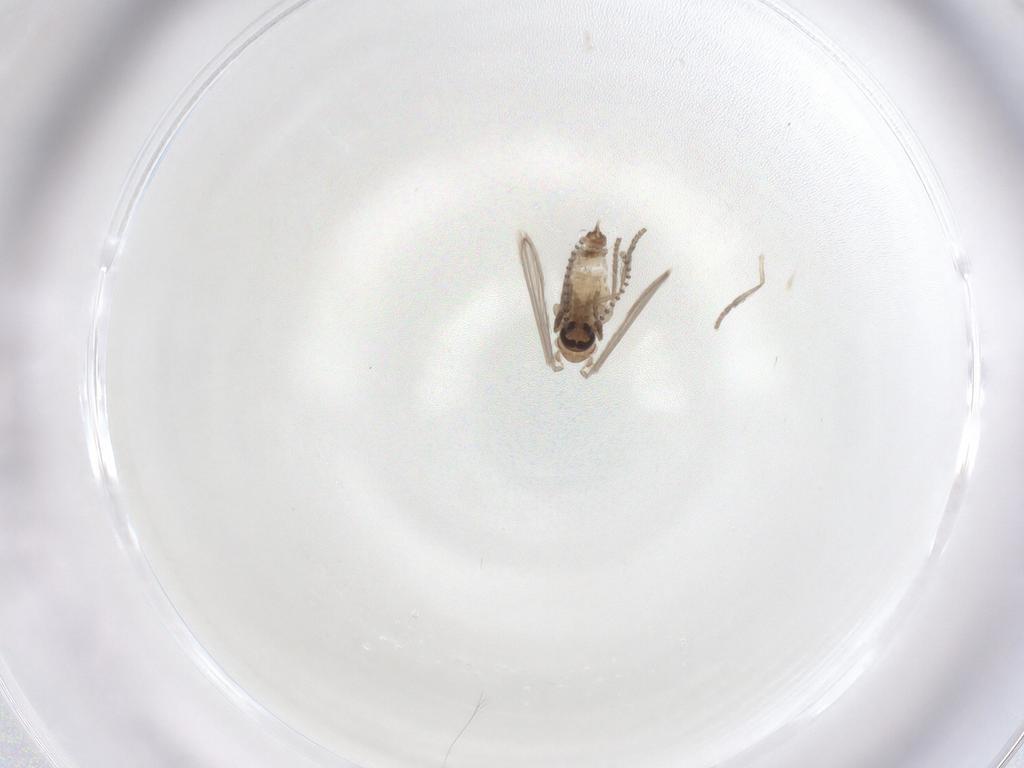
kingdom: Animalia
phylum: Arthropoda
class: Insecta
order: Diptera
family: Psychodidae
